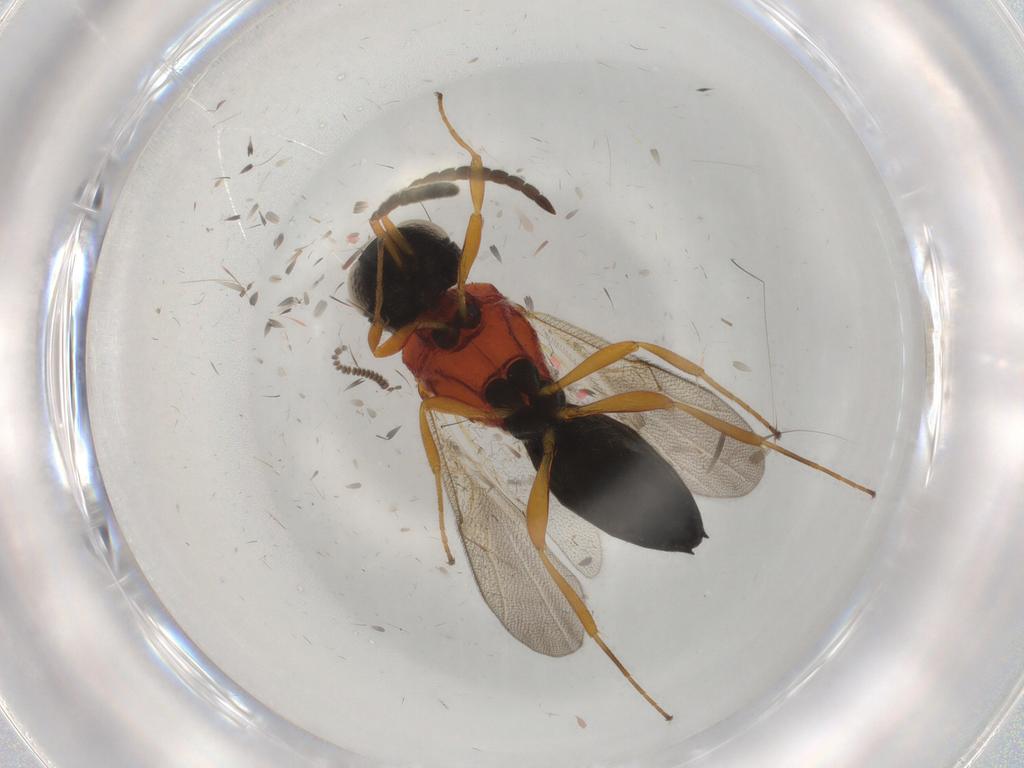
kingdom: Animalia
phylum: Arthropoda
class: Insecta
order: Hymenoptera
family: Scelionidae
